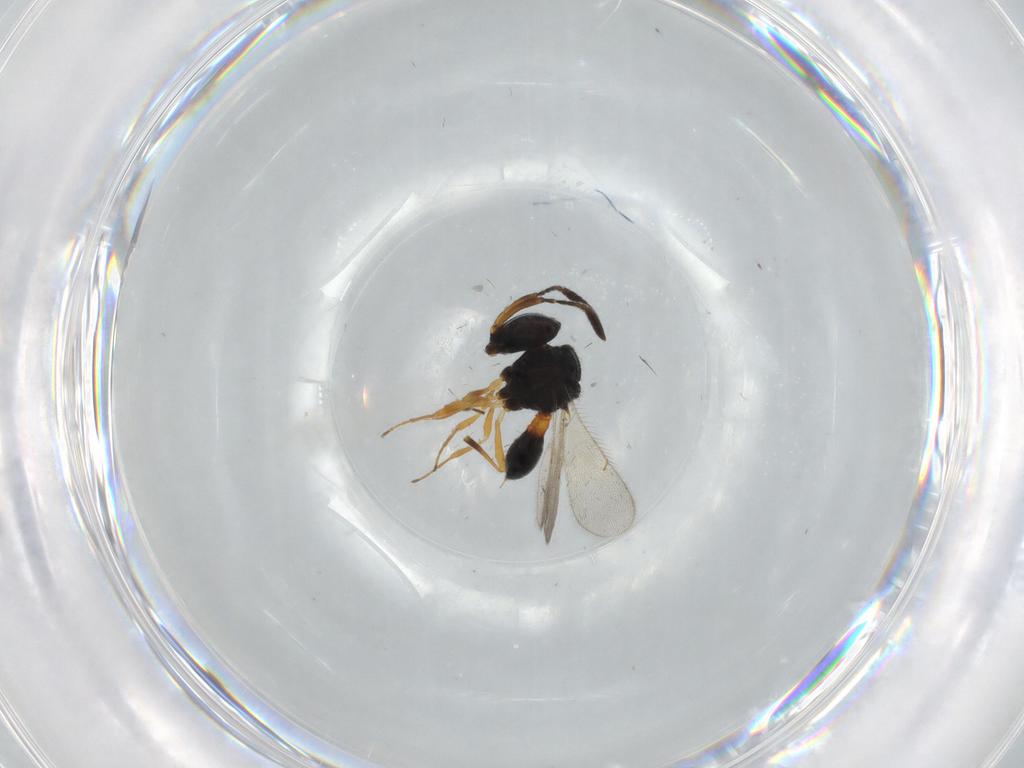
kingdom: Animalia
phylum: Arthropoda
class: Insecta
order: Hymenoptera
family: Scelionidae
